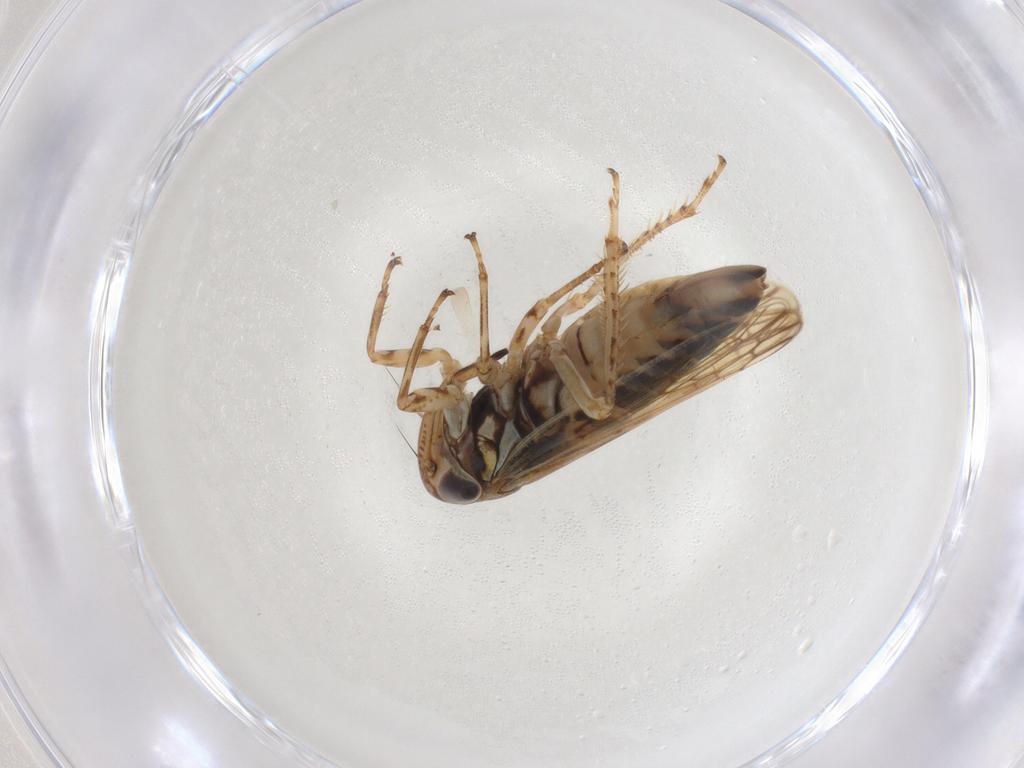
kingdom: Animalia
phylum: Arthropoda
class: Insecta
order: Hemiptera
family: Cicadellidae
